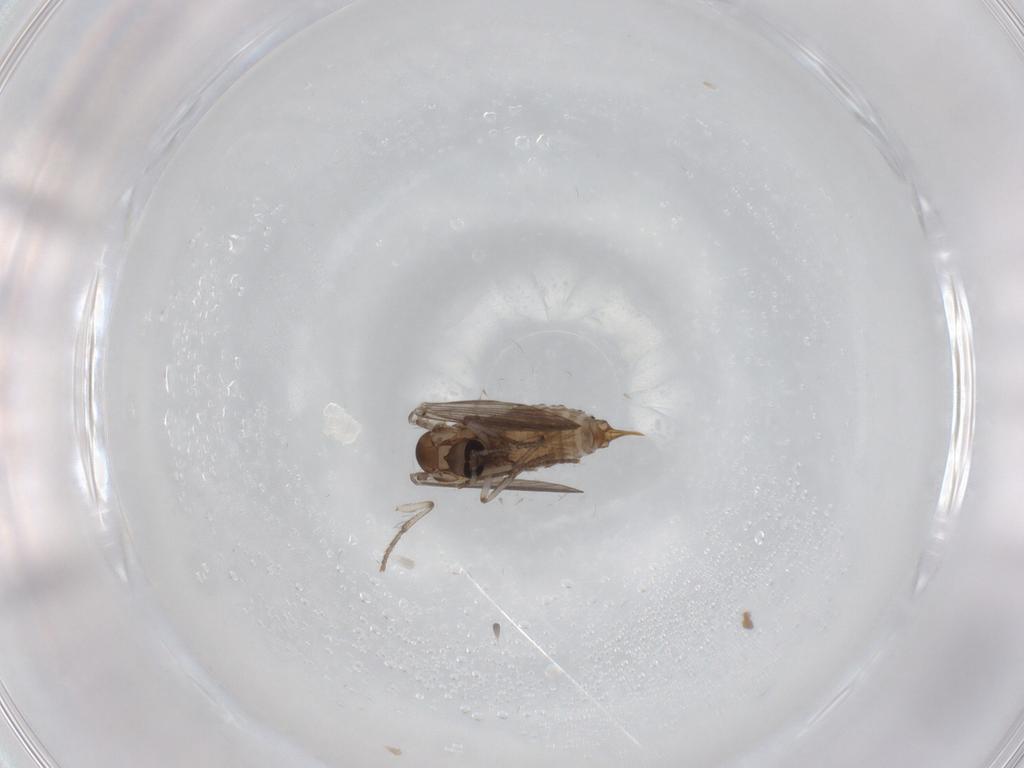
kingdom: Animalia
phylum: Arthropoda
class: Insecta
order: Diptera
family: Psychodidae
